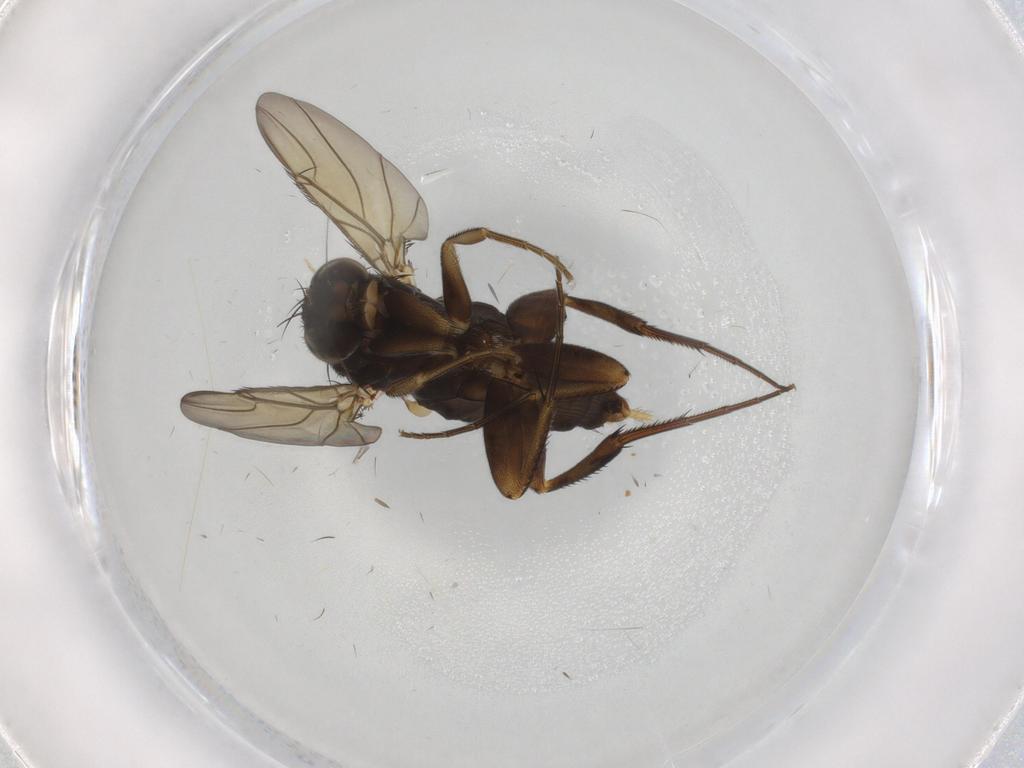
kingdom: Animalia
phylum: Arthropoda
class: Insecta
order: Diptera
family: Phoridae
